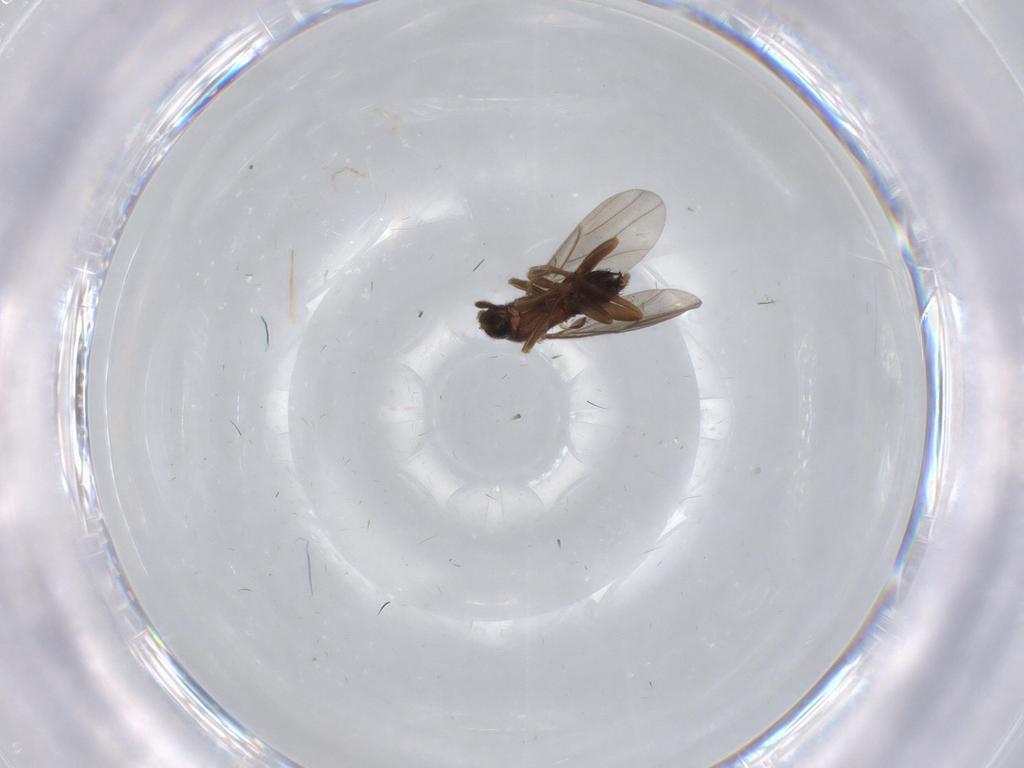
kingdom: Animalia
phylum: Arthropoda
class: Insecta
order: Diptera
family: Phoridae
